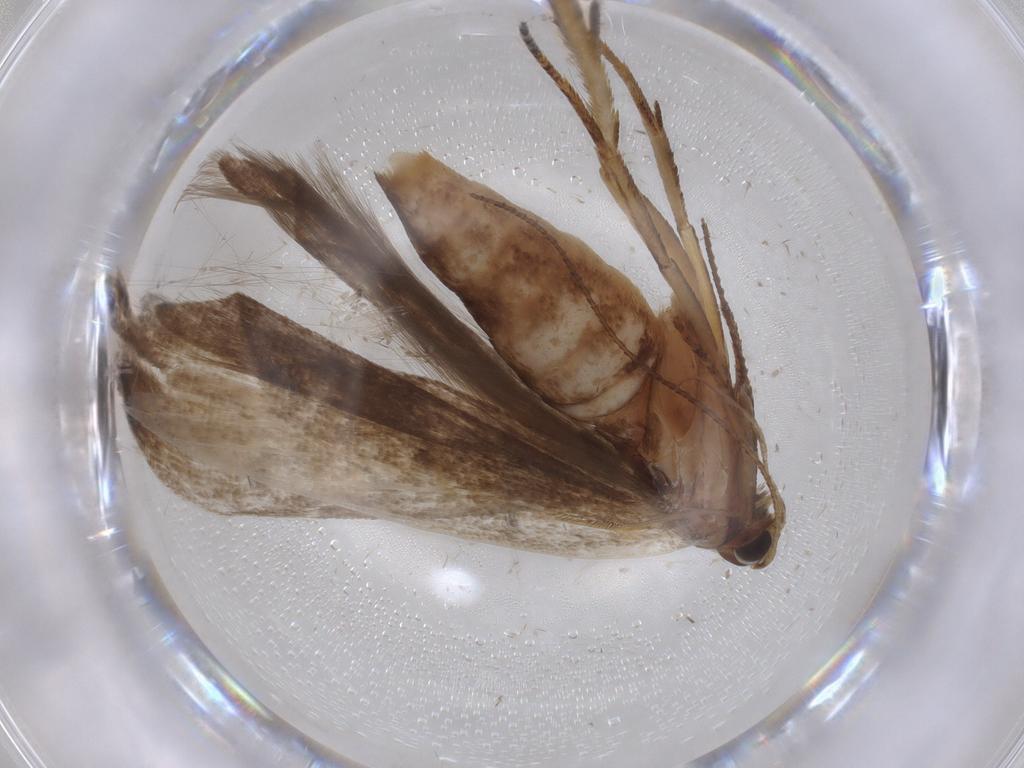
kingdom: Animalia
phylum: Arthropoda
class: Insecta
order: Lepidoptera
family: Gelechiidae
